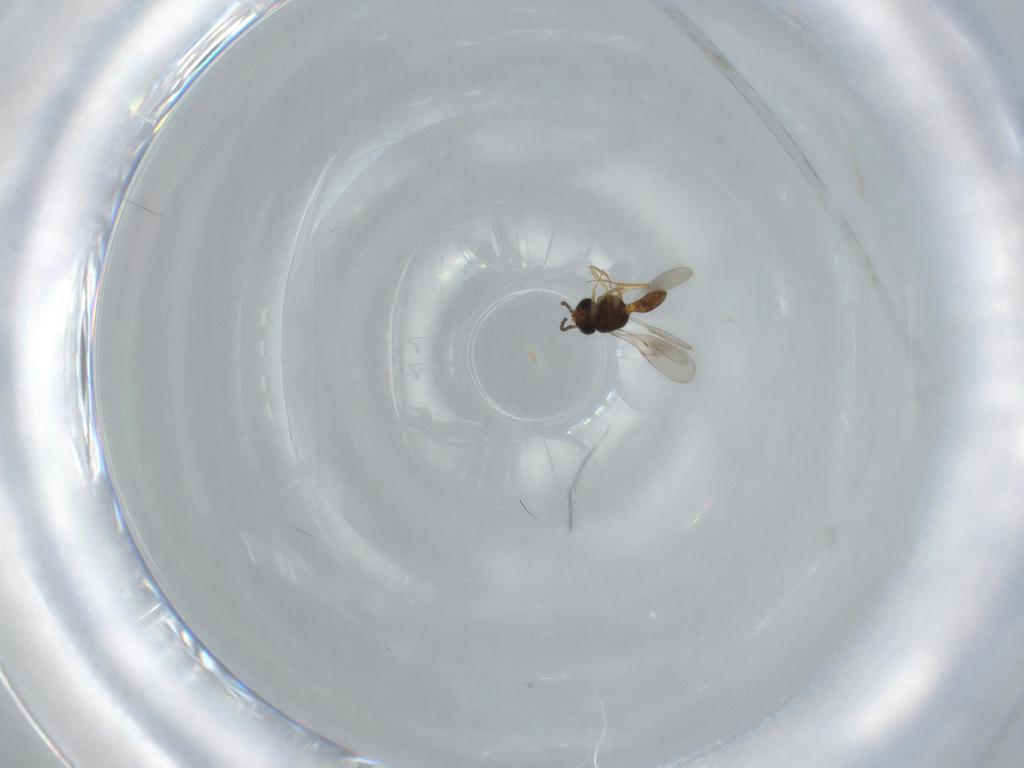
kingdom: Animalia
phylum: Arthropoda
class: Insecta
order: Hymenoptera
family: Scelionidae
